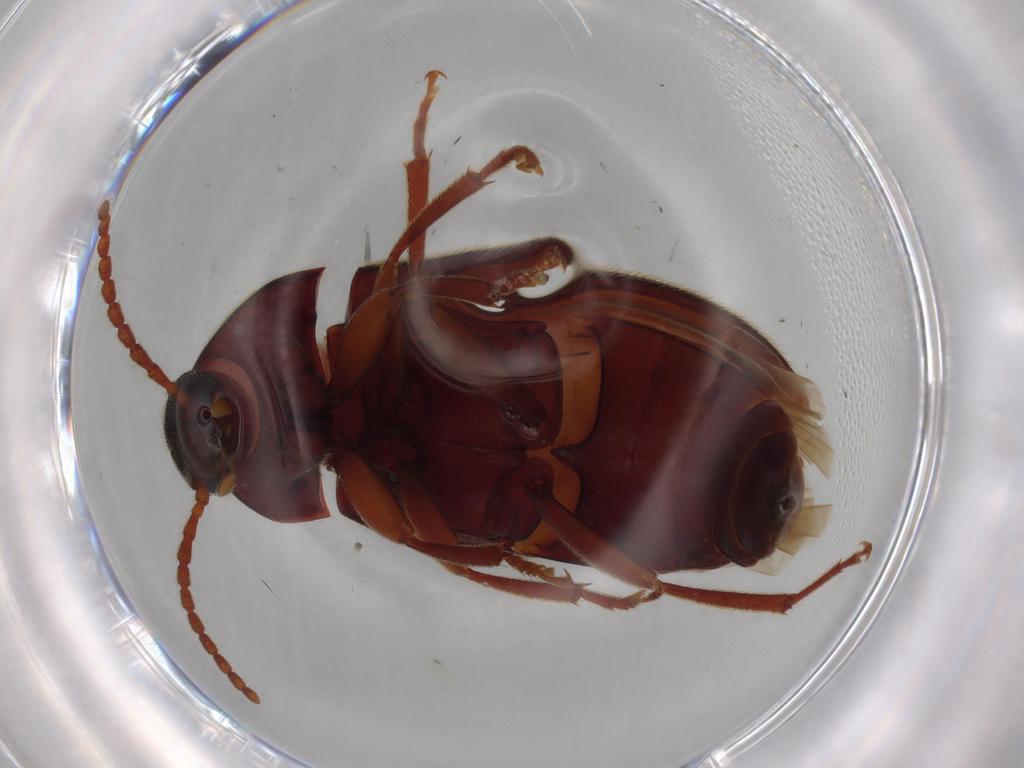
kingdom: Animalia
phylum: Arthropoda
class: Insecta
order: Coleoptera
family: Tenebrionidae
